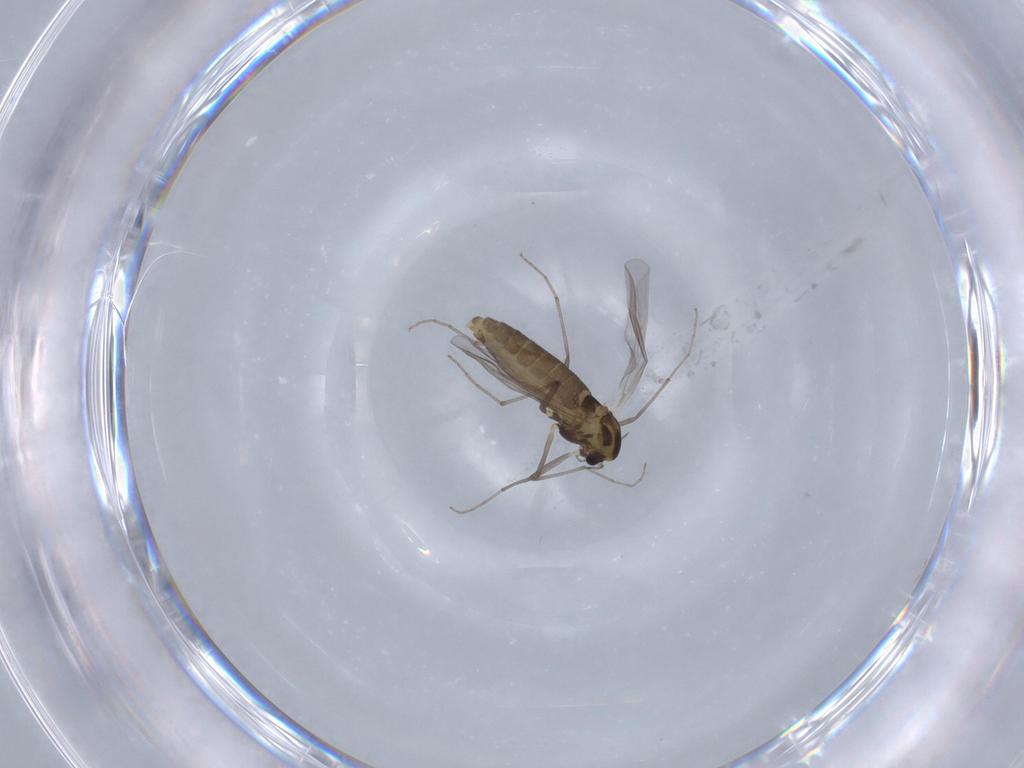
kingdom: Animalia
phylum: Arthropoda
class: Insecta
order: Diptera
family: Chironomidae
